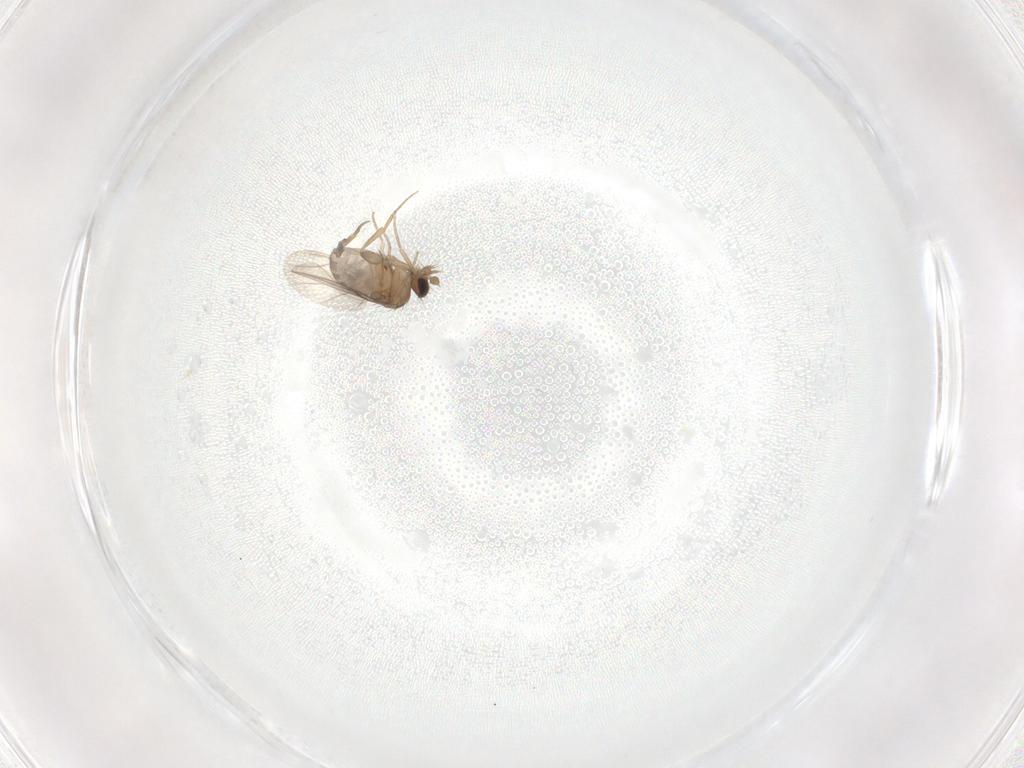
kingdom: Animalia
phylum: Arthropoda
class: Insecta
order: Diptera
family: Phoridae
